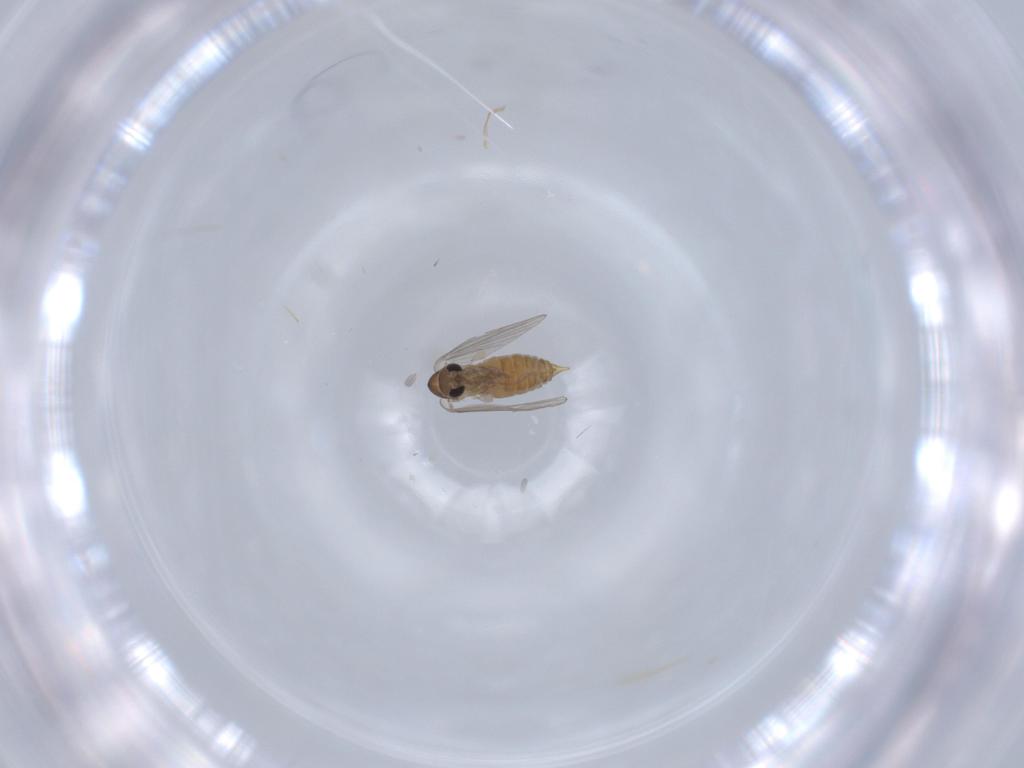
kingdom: Animalia
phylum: Arthropoda
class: Insecta
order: Diptera
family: Psychodidae
